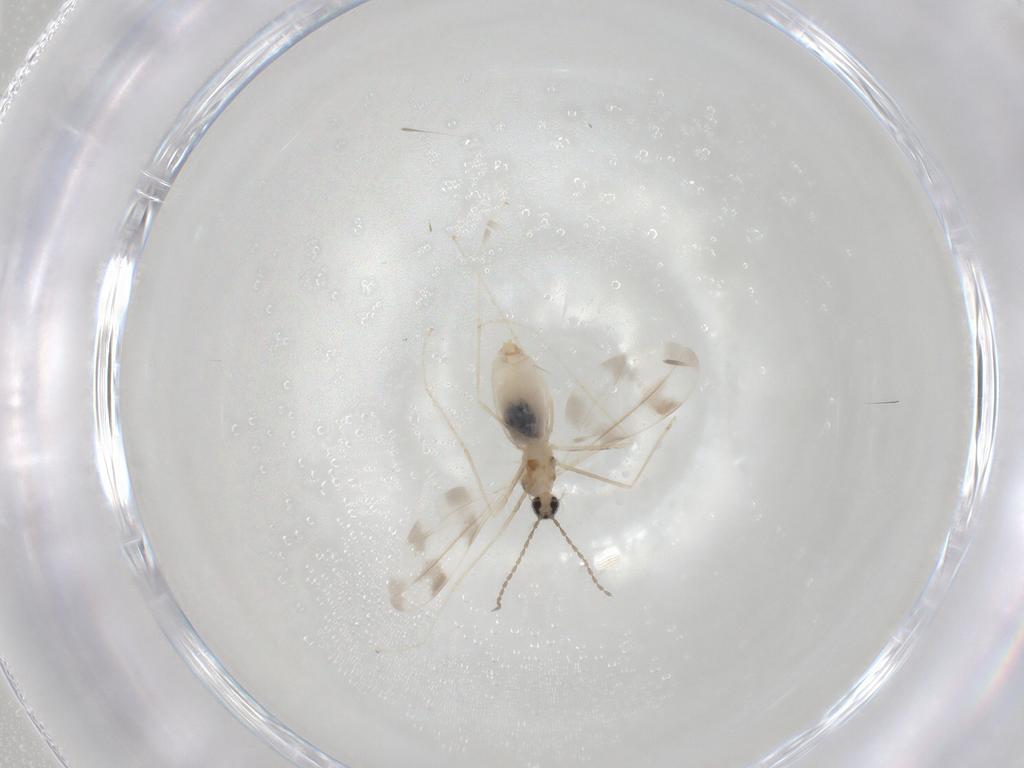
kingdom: Animalia
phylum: Arthropoda
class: Insecta
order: Diptera
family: Cecidomyiidae
